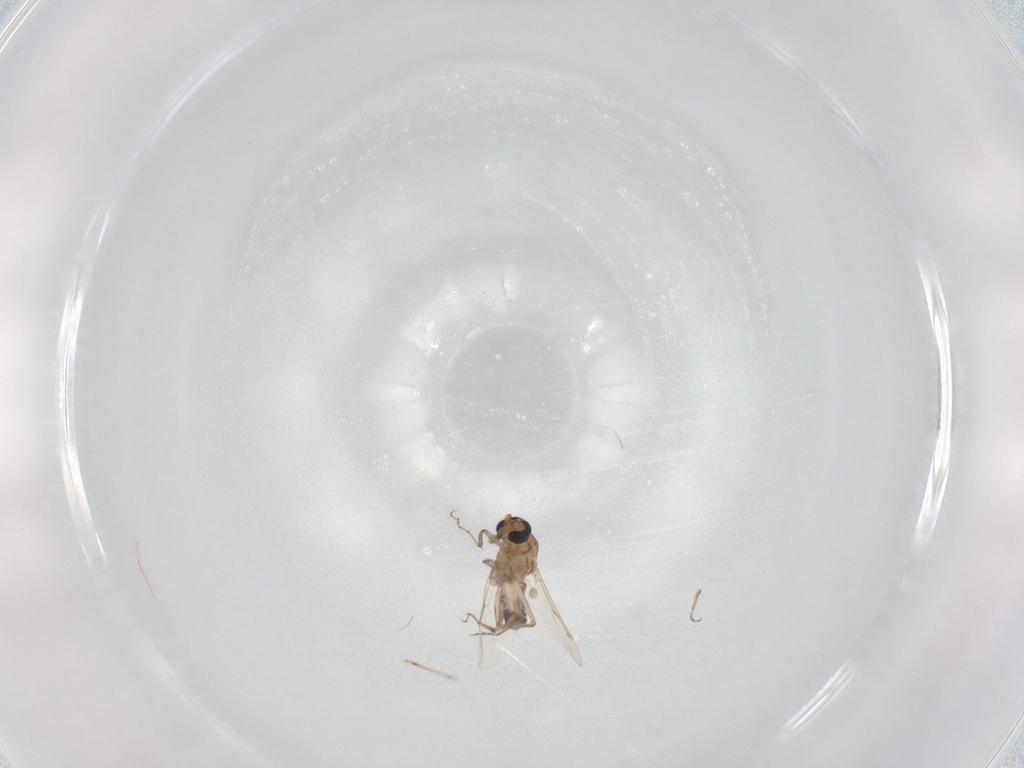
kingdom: Animalia
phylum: Arthropoda
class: Insecta
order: Diptera
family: Ceratopogonidae
